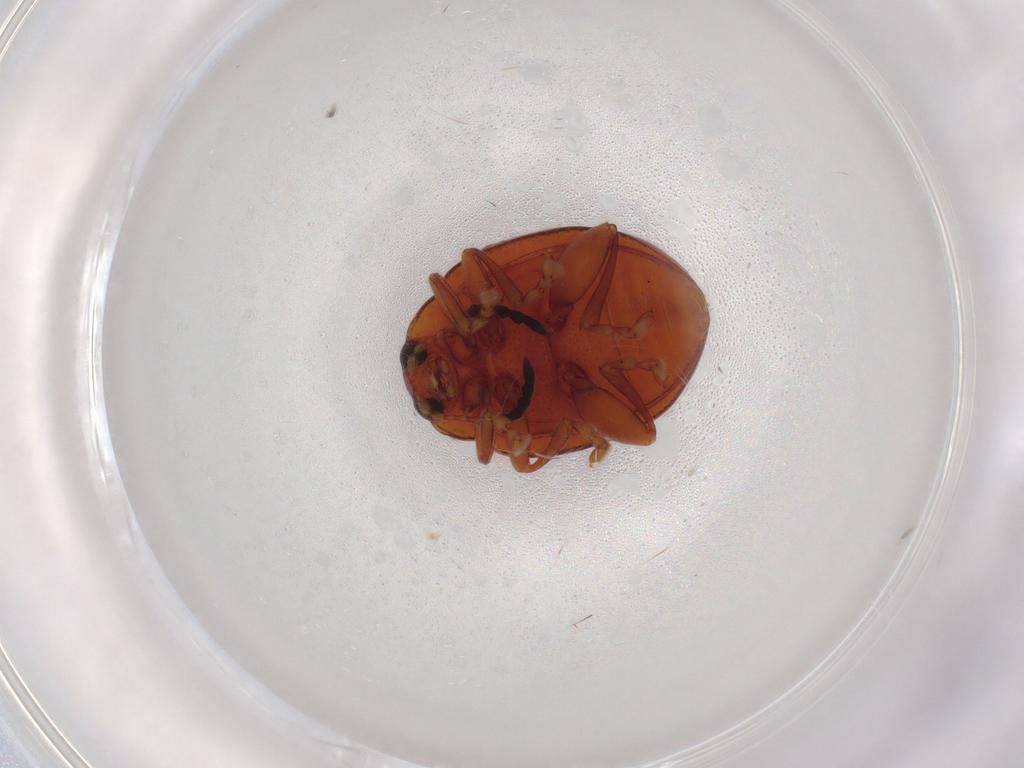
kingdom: Animalia
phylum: Arthropoda
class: Insecta
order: Coleoptera
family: Chrysomelidae
